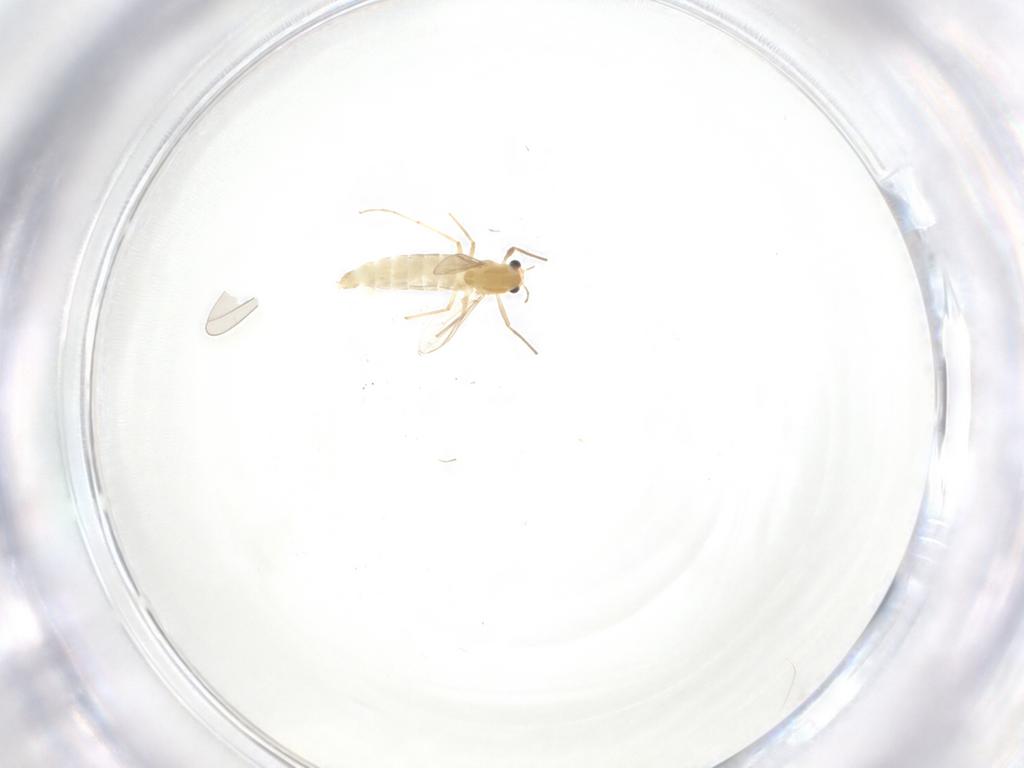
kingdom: Animalia
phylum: Arthropoda
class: Insecta
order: Diptera
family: Chironomidae
